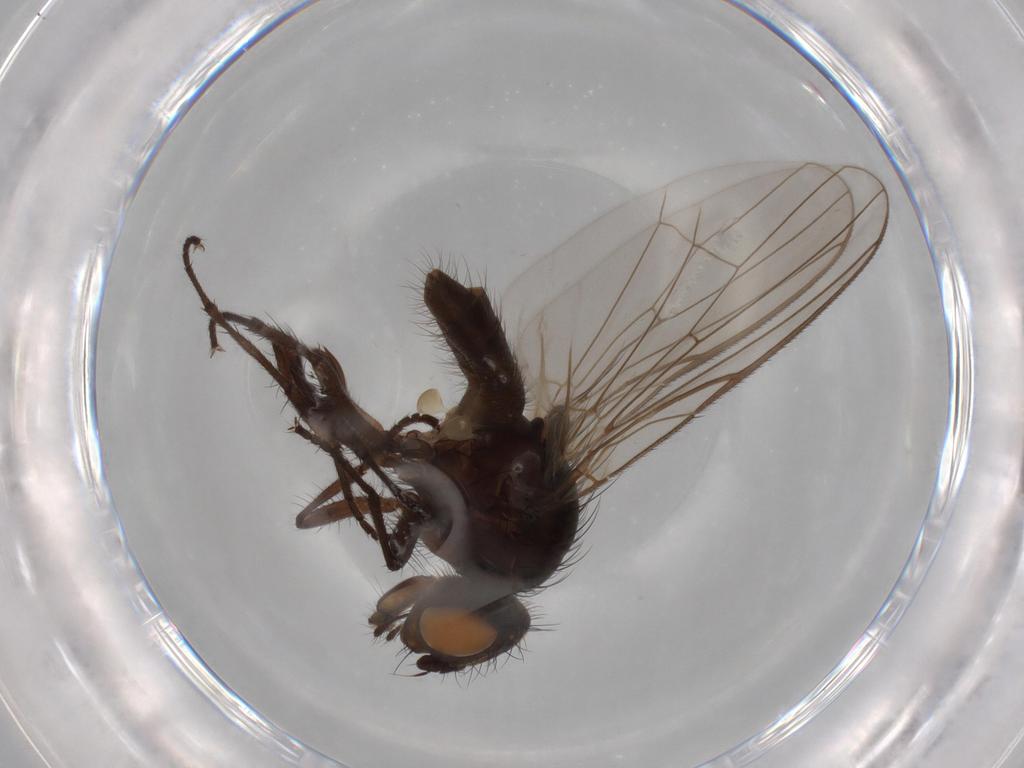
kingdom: Animalia
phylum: Arthropoda
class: Insecta
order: Diptera
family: Anthomyiidae
